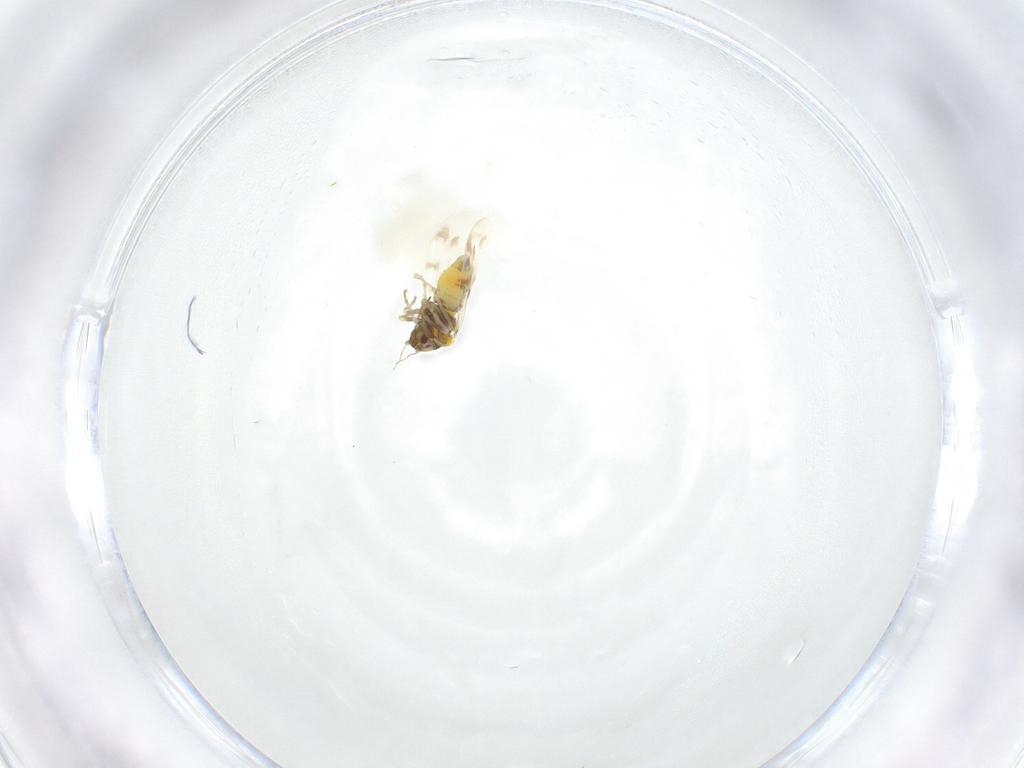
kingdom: Animalia
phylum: Arthropoda
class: Insecta
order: Hemiptera
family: Aleyrodidae
